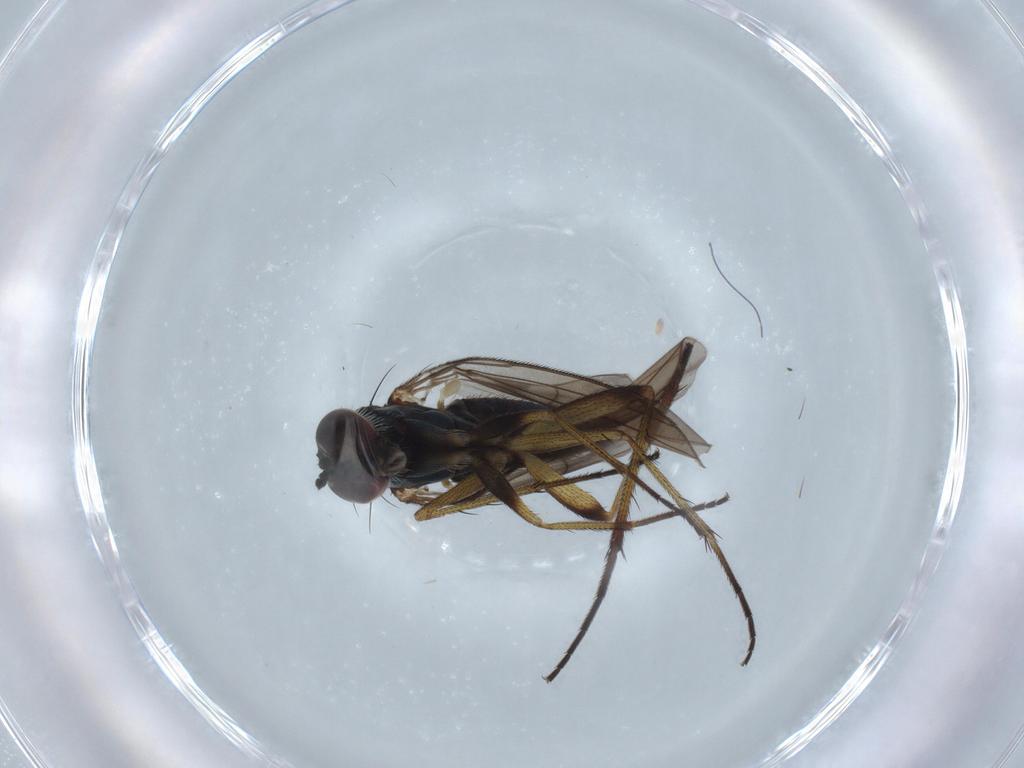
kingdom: Animalia
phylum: Arthropoda
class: Insecta
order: Diptera
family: Dolichopodidae
